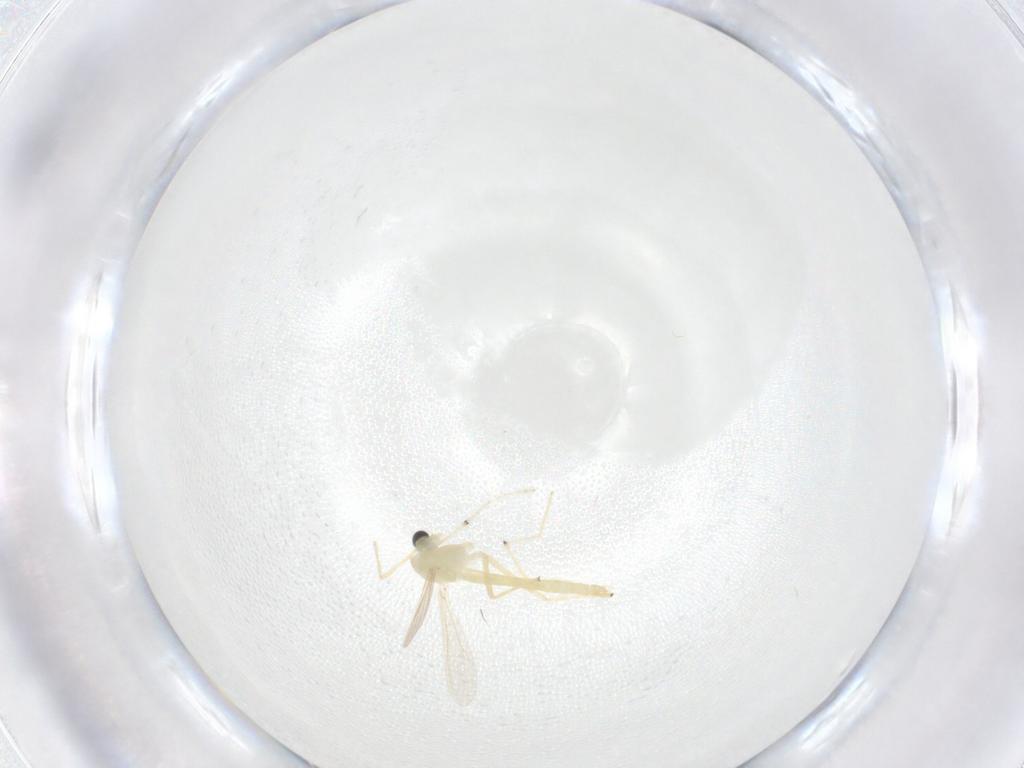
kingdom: Animalia
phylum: Arthropoda
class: Insecta
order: Diptera
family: Chironomidae
